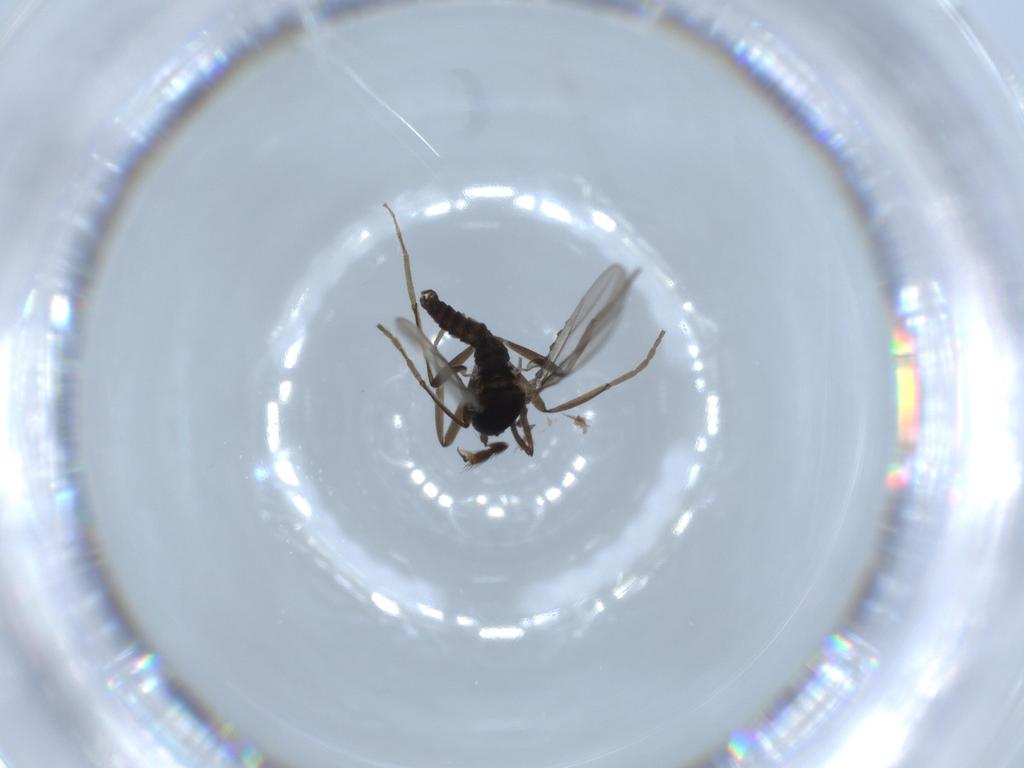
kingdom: Animalia
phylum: Arthropoda
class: Insecta
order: Diptera
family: Cecidomyiidae
